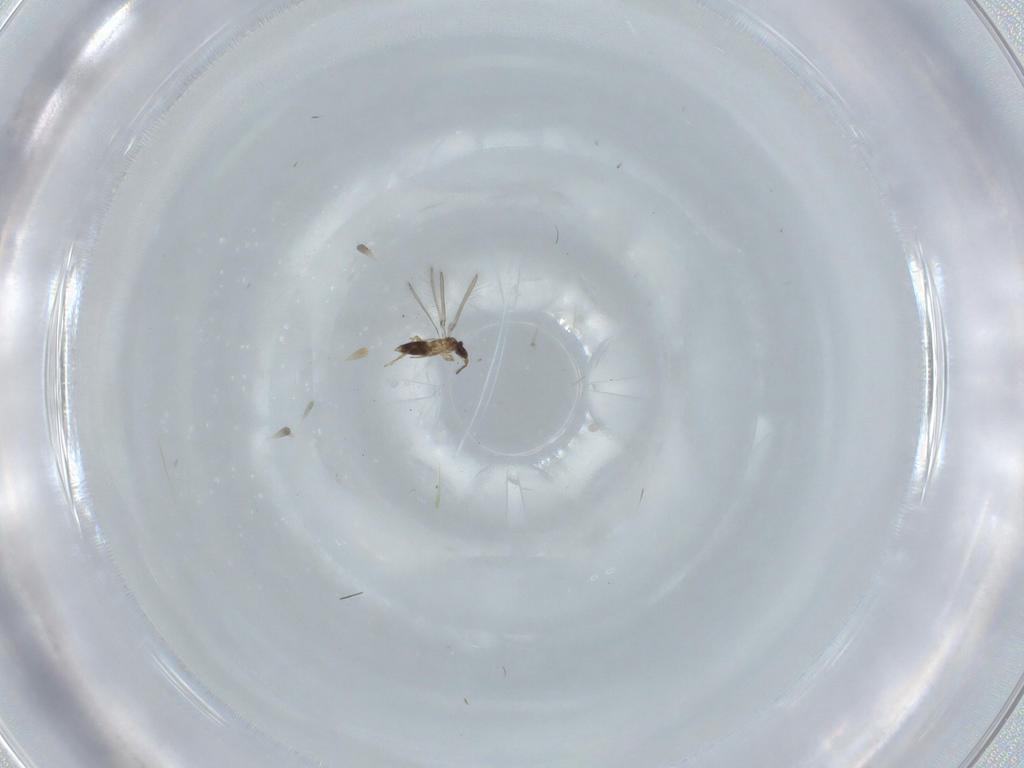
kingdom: Animalia
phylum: Arthropoda
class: Insecta
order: Hymenoptera
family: Mymaridae
